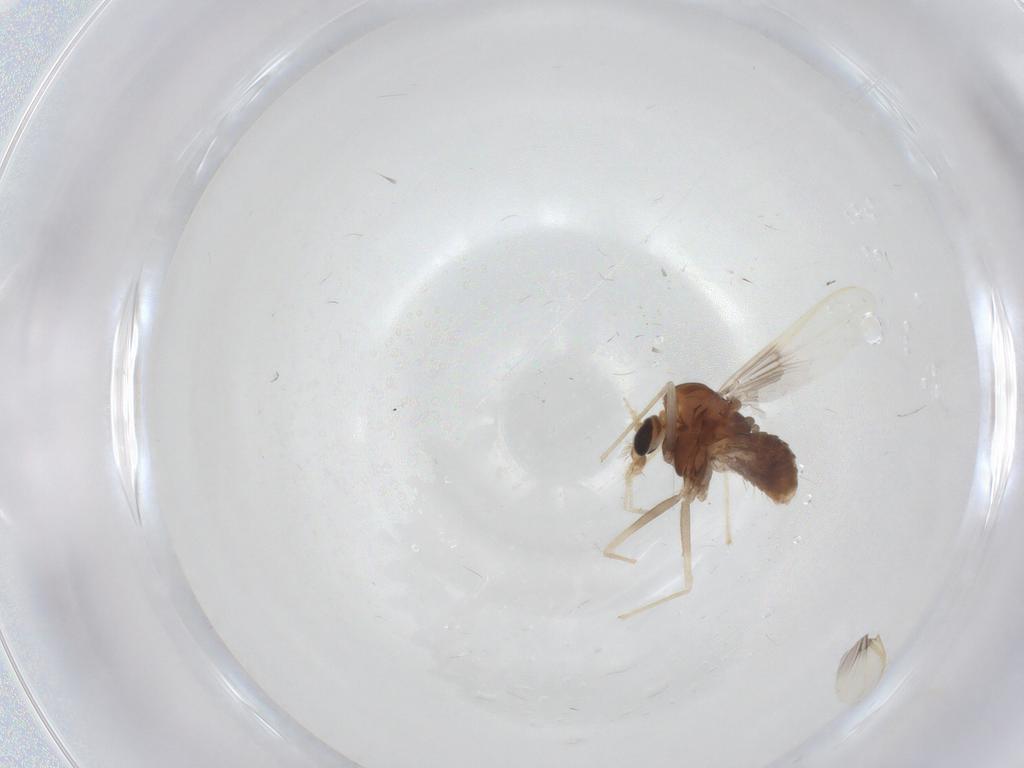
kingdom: Animalia
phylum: Arthropoda
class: Insecta
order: Diptera
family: Chironomidae
